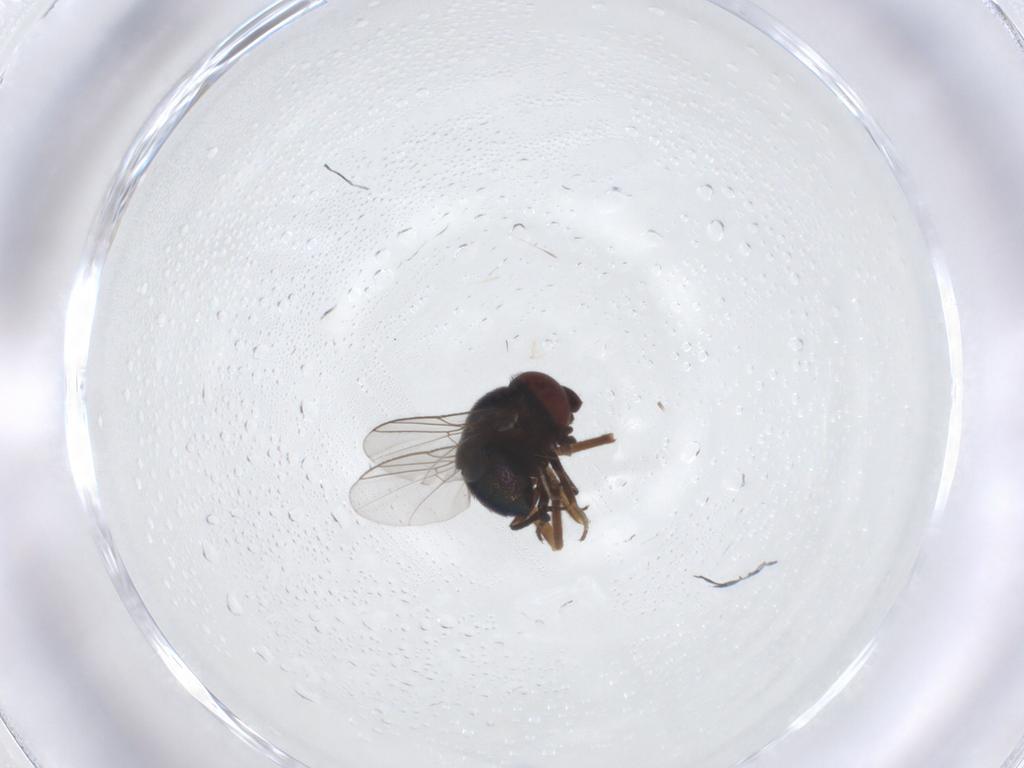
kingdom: Animalia
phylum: Arthropoda
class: Insecta
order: Diptera
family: Cryptochetidae
